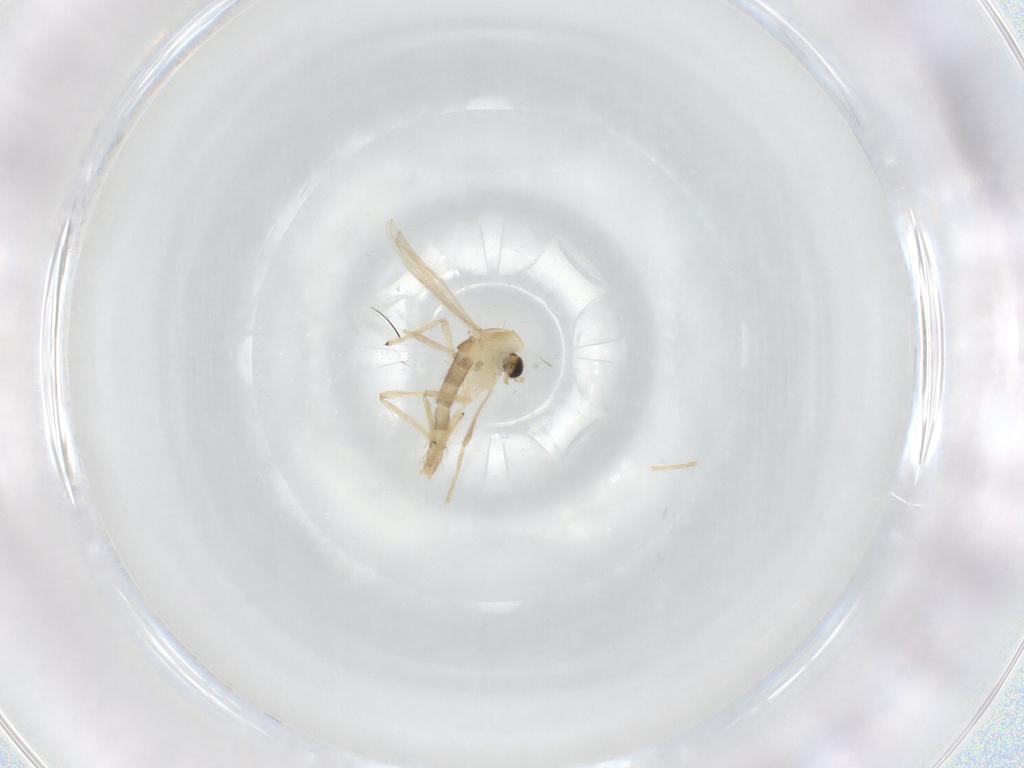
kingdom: Animalia
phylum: Arthropoda
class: Insecta
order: Diptera
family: Chironomidae
